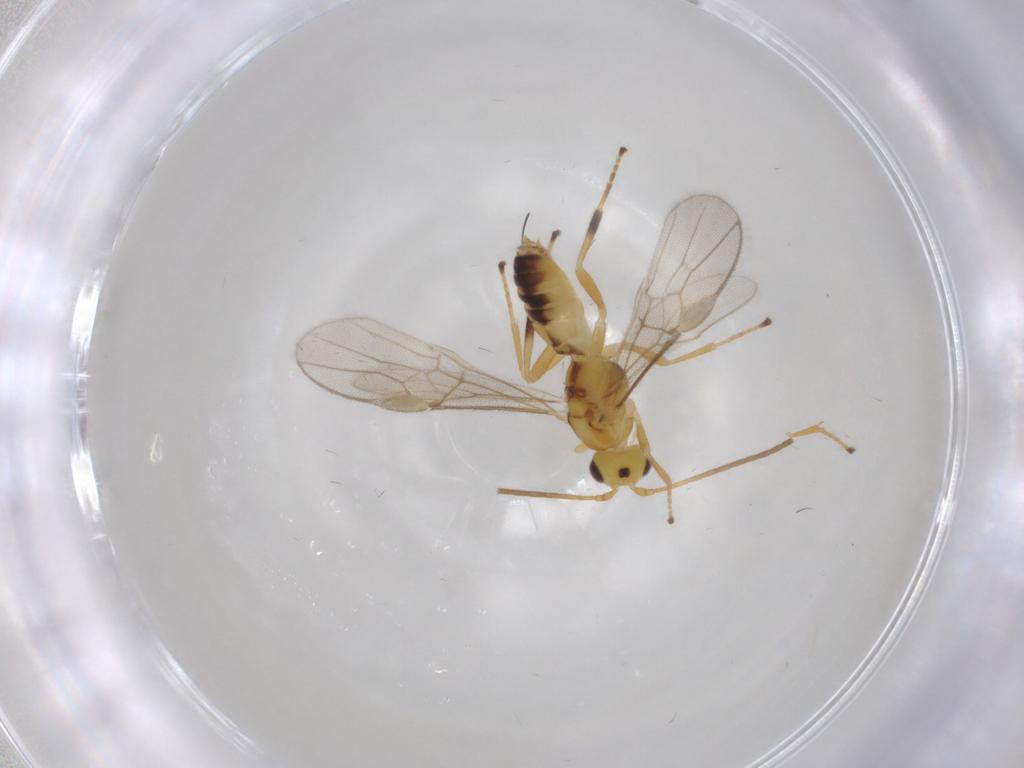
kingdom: Animalia
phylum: Arthropoda
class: Insecta
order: Hymenoptera
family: Braconidae
